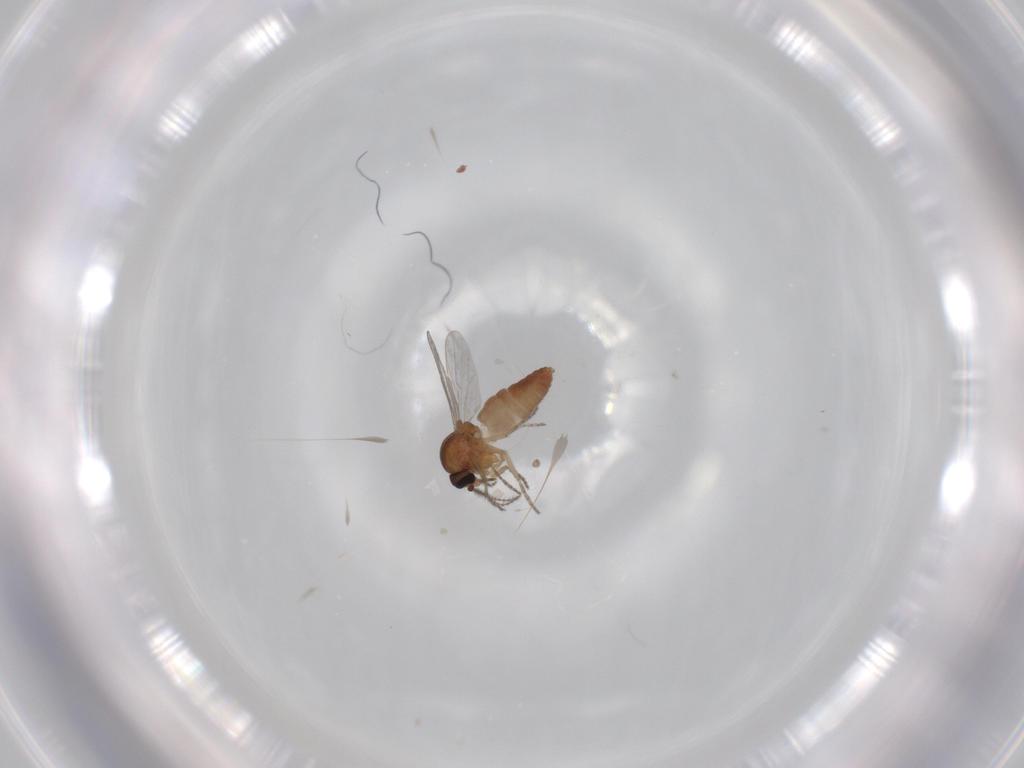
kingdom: Animalia
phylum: Arthropoda
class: Insecta
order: Diptera
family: Ceratopogonidae
